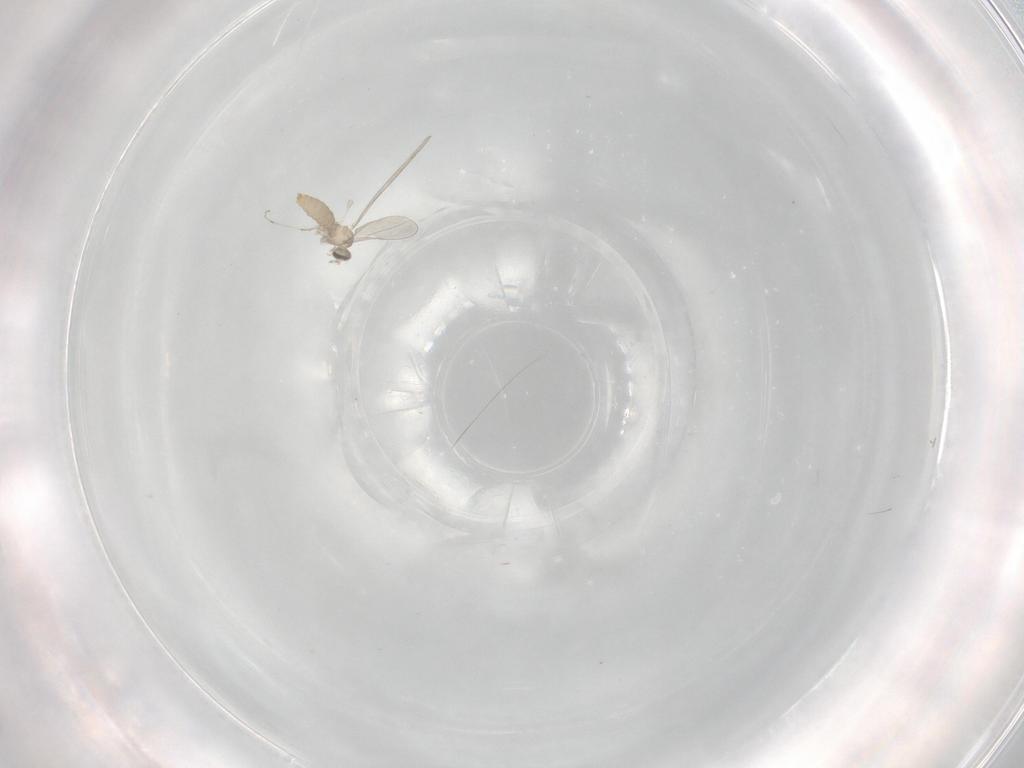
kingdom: Animalia
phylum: Arthropoda
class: Insecta
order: Diptera
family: Cecidomyiidae
